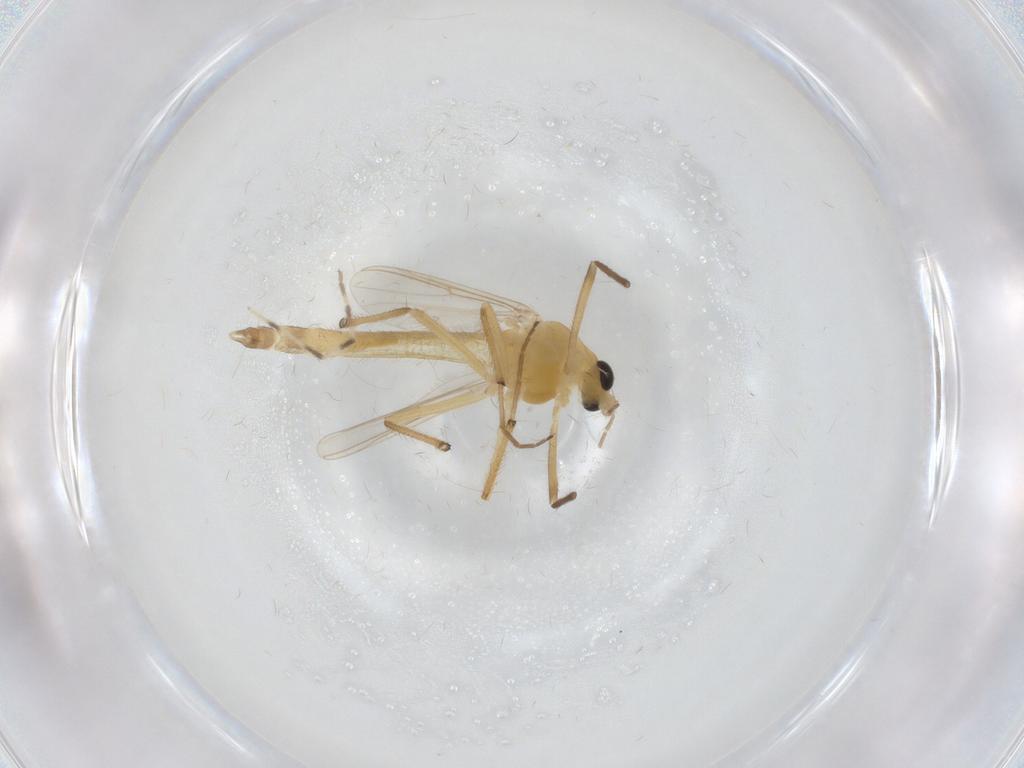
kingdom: Animalia
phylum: Arthropoda
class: Insecta
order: Diptera
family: Chironomidae
